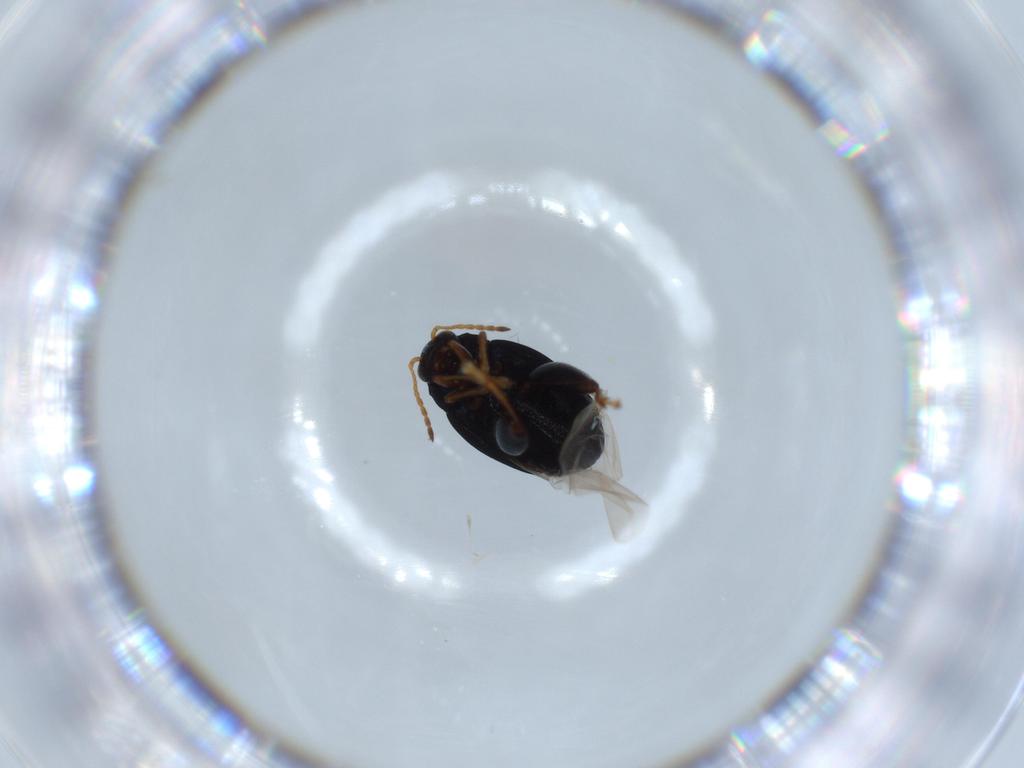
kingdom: Animalia
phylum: Arthropoda
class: Insecta
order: Coleoptera
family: Chrysomelidae
